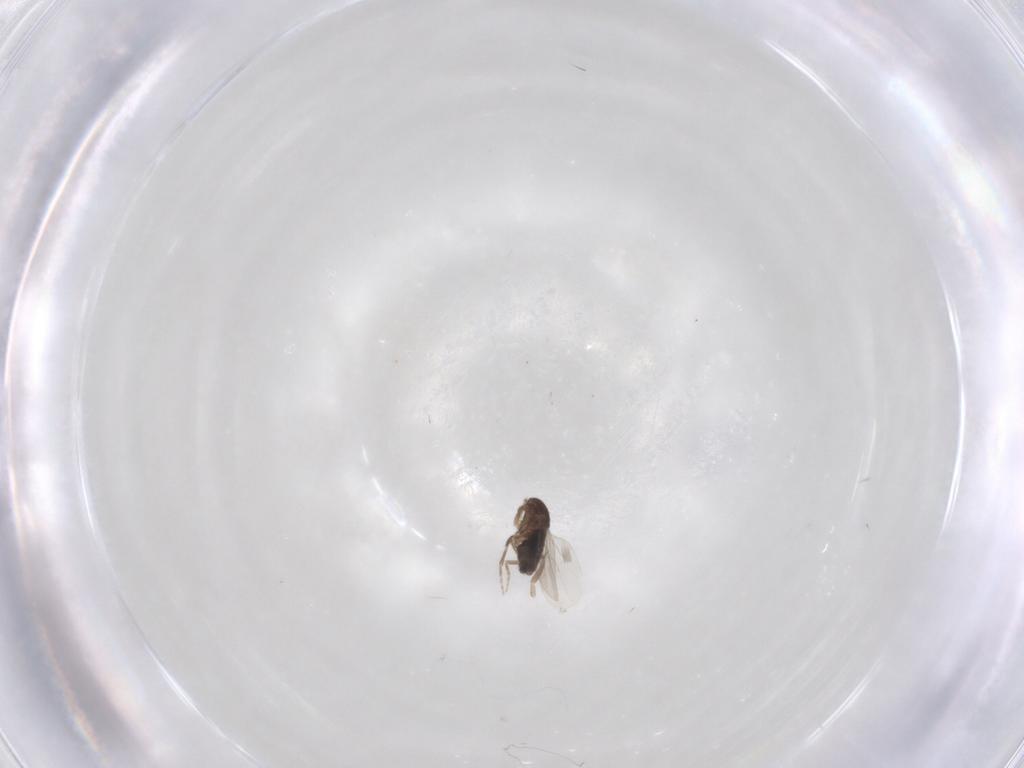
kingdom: Animalia
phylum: Arthropoda
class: Insecta
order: Diptera
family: Phoridae
